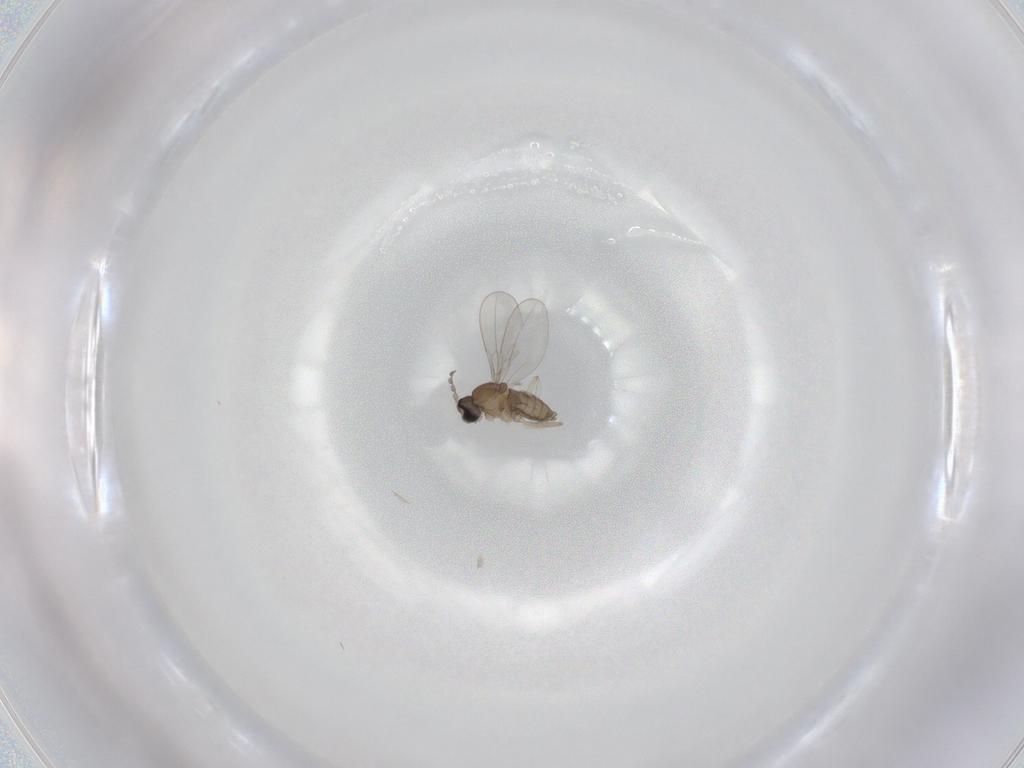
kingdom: Animalia
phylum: Arthropoda
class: Insecta
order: Diptera
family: Cecidomyiidae
